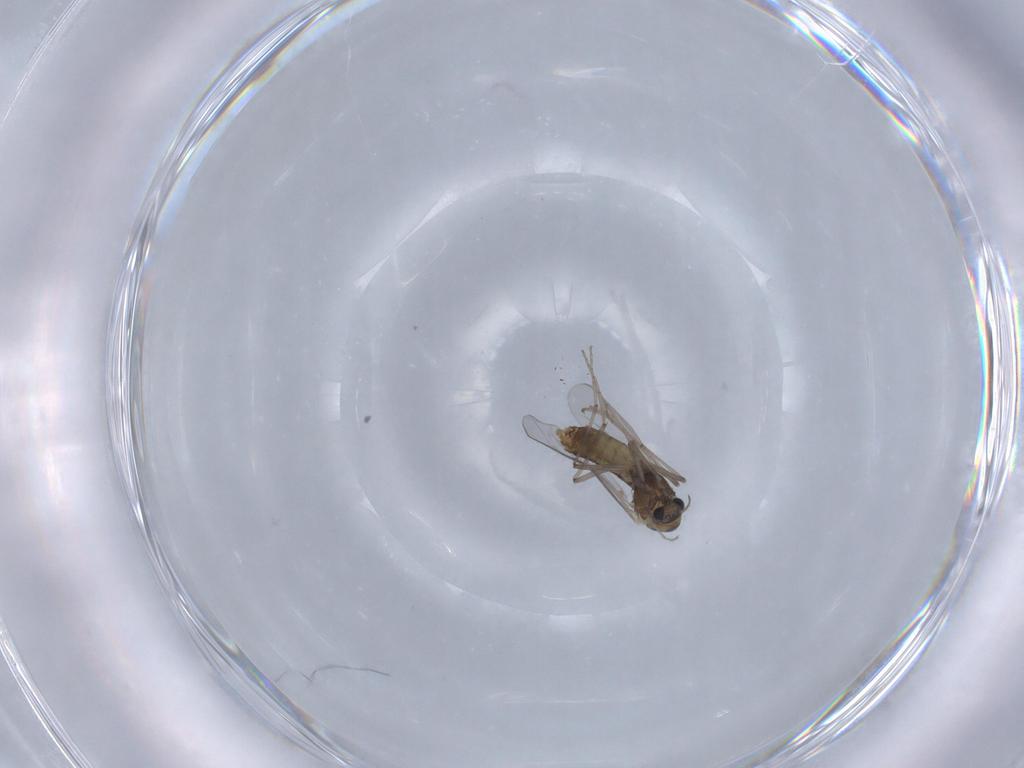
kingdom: Animalia
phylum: Arthropoda
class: Insecta
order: Diptera
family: Chironomidae
